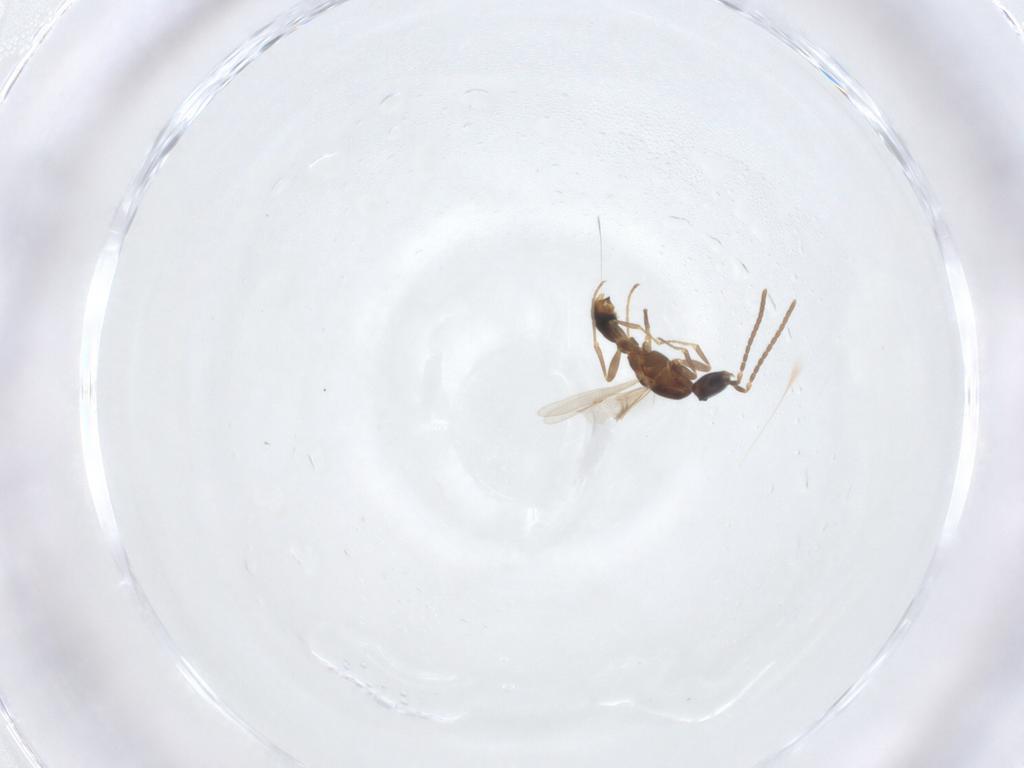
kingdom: Animalia
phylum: Arthropoda
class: Insecta
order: Hymenoptera
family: Formicidae
